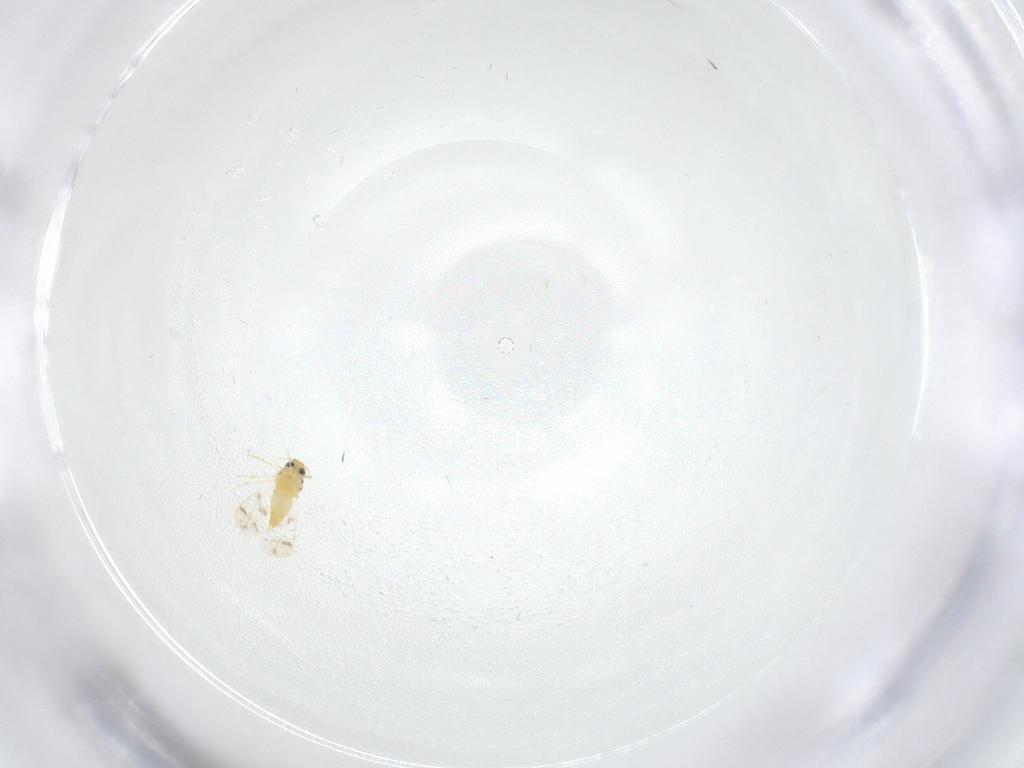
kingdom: Animalia
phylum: Arthropoda
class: Insecta
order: Hemiptera
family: Aleyrodidae
